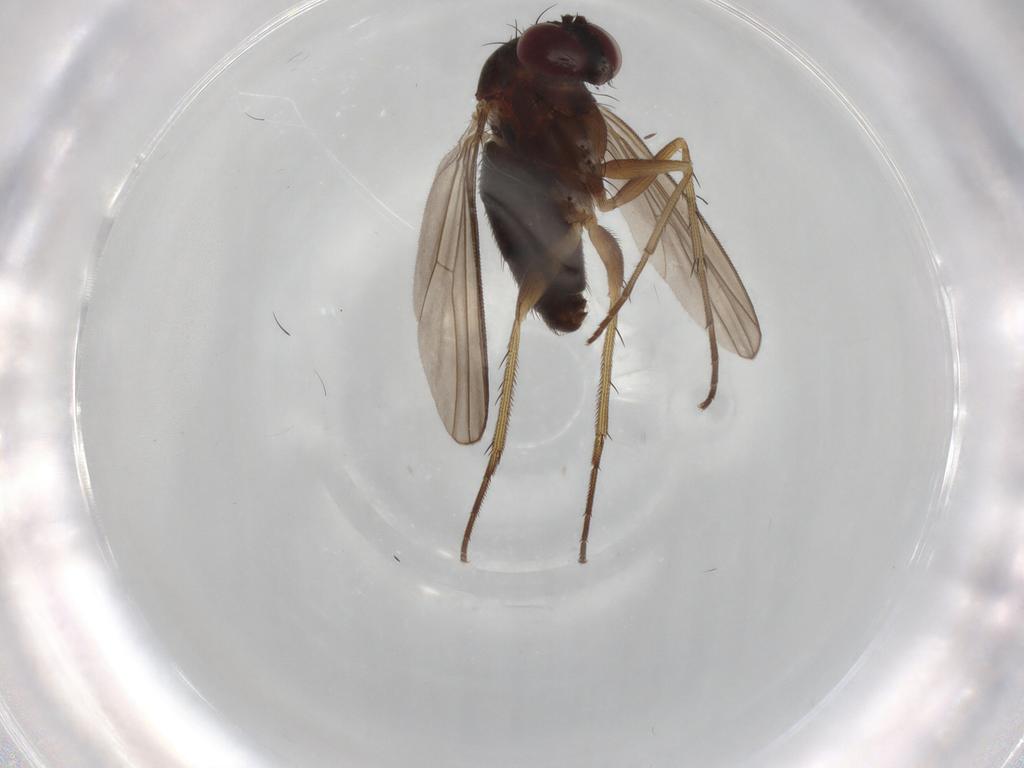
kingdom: Animalia
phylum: Arthropoda
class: Insecta
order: Diptera
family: Dolichopodidae
